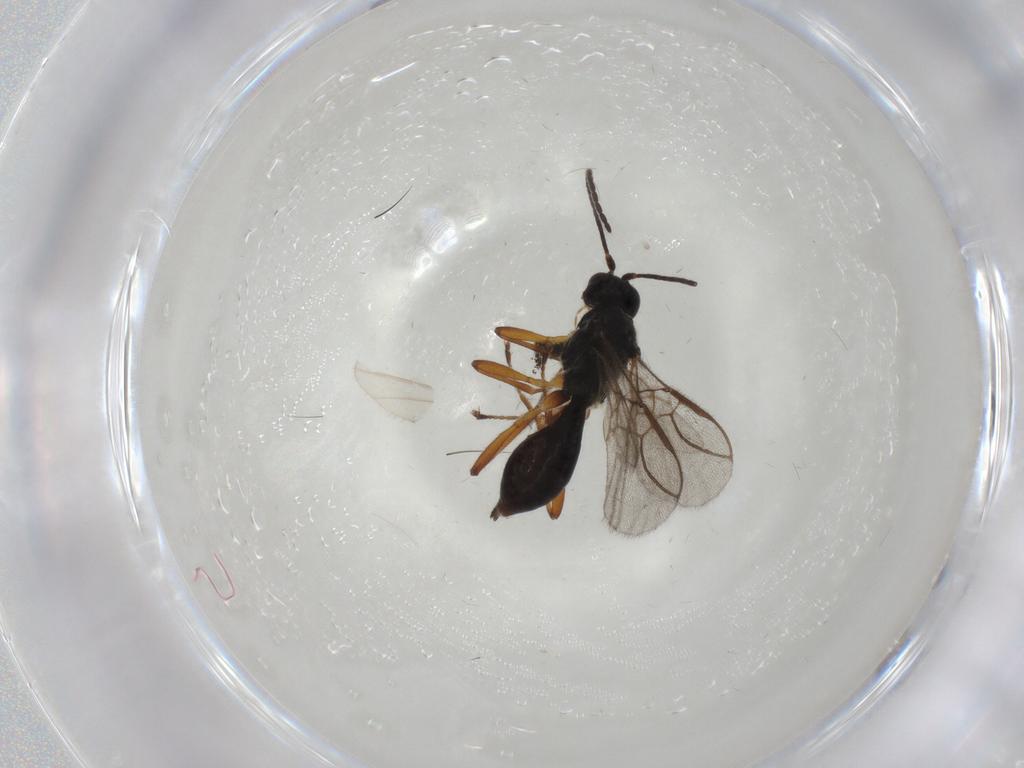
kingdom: Animalia
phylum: Arthropoda
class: Insecta
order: Hymenoptera
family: Braconidae
